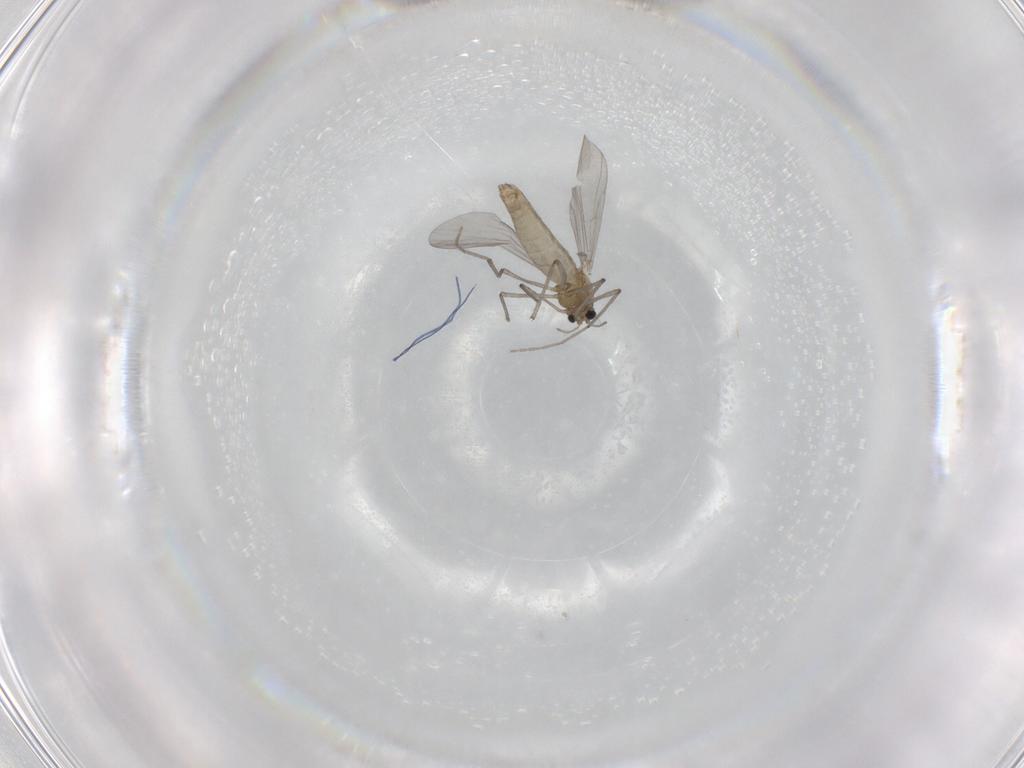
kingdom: Animalia
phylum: Arthropoda
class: Insecta
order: Diptera
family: Chironomidae
